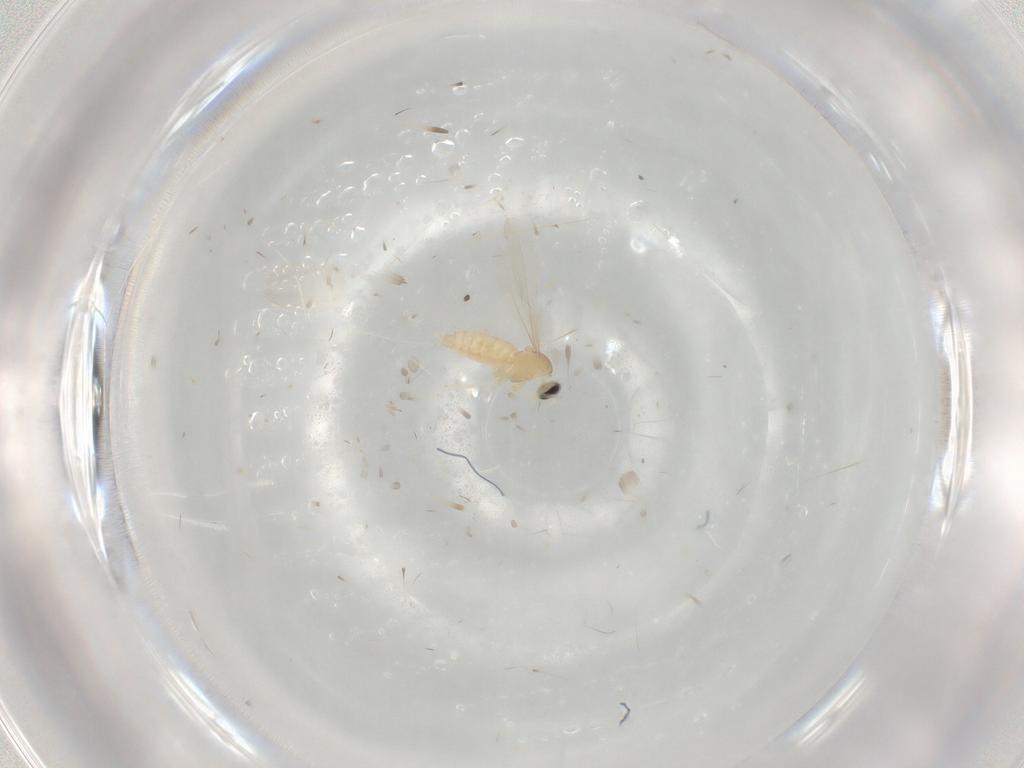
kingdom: Animalia
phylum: Arthropoda
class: Insecta
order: Diptera
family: Cecidomyiidae
